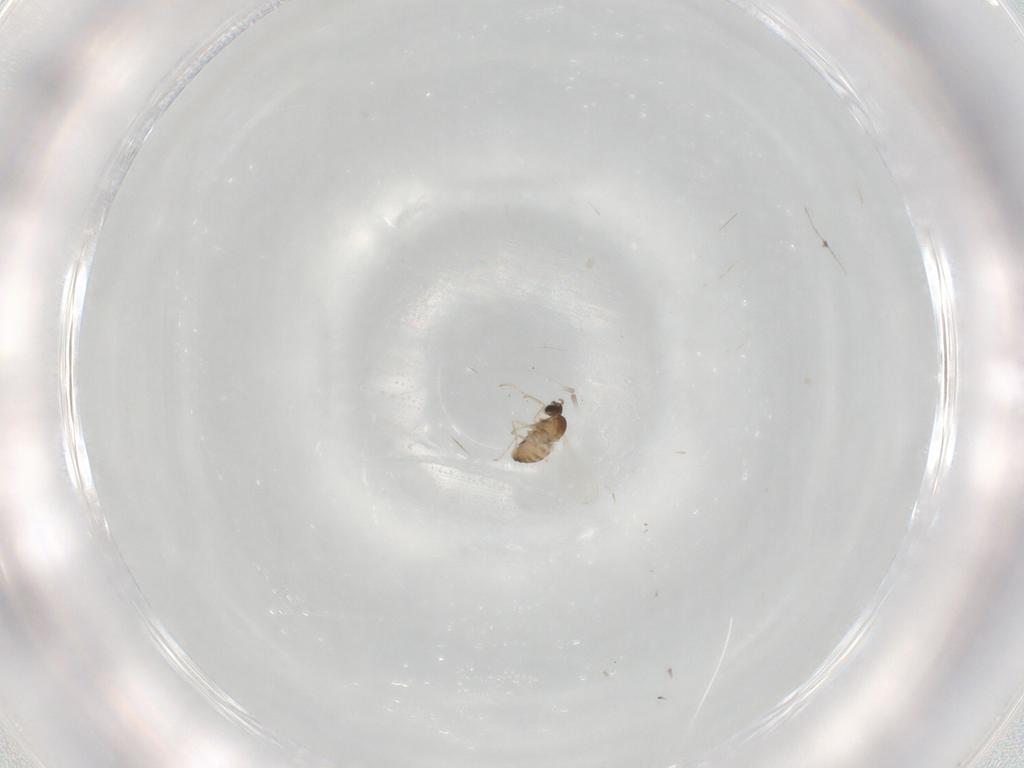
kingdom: Animalia
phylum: Arthropoda
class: Insecta
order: Diptera
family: Cecidomyiidae
